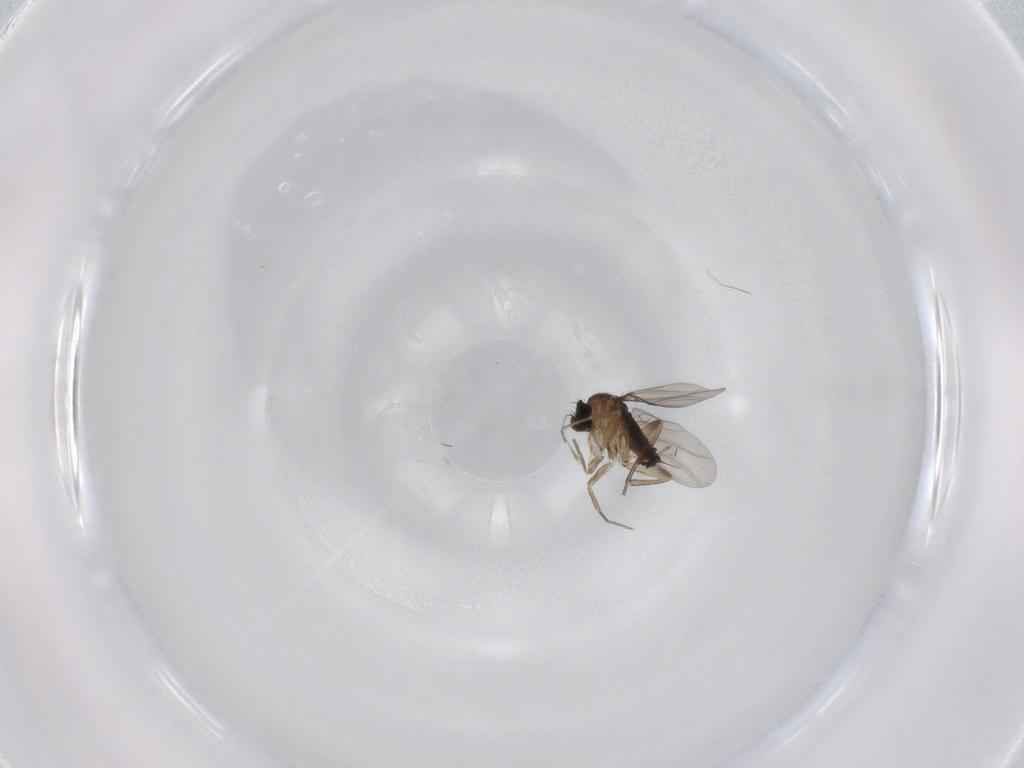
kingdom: Animalia
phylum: Arthropoda
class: Insecta
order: Diptera
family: Phoridae
